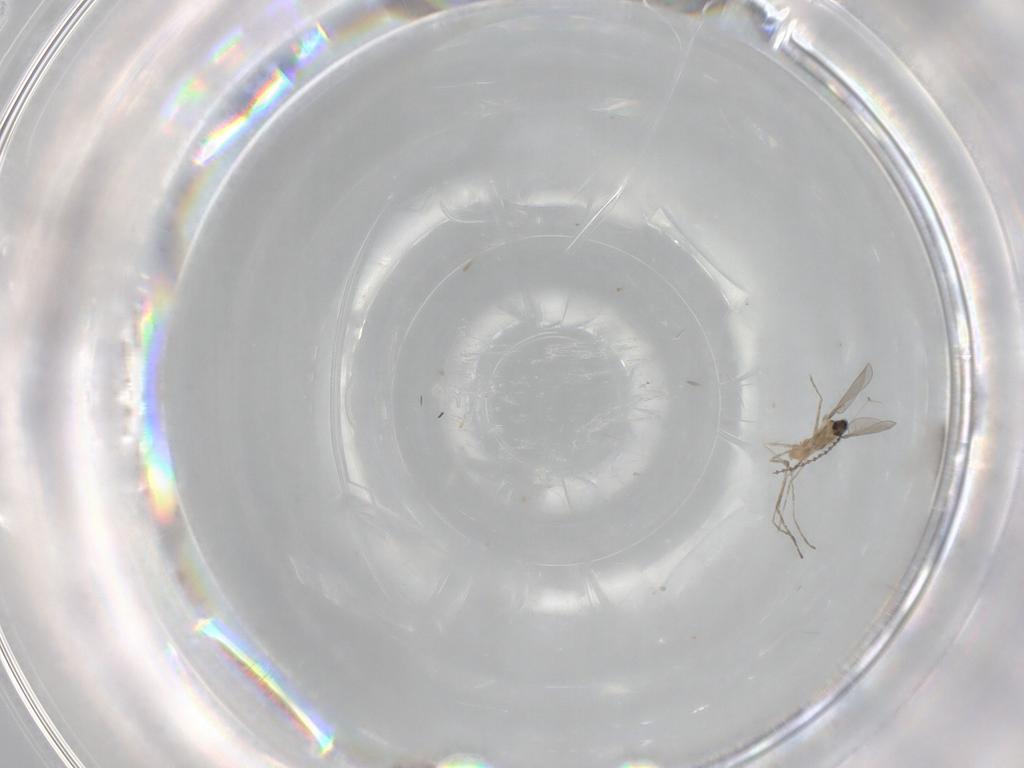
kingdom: Animalia
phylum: Arthropoda
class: Insecta
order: Diptera
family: Cecidomyiidae
